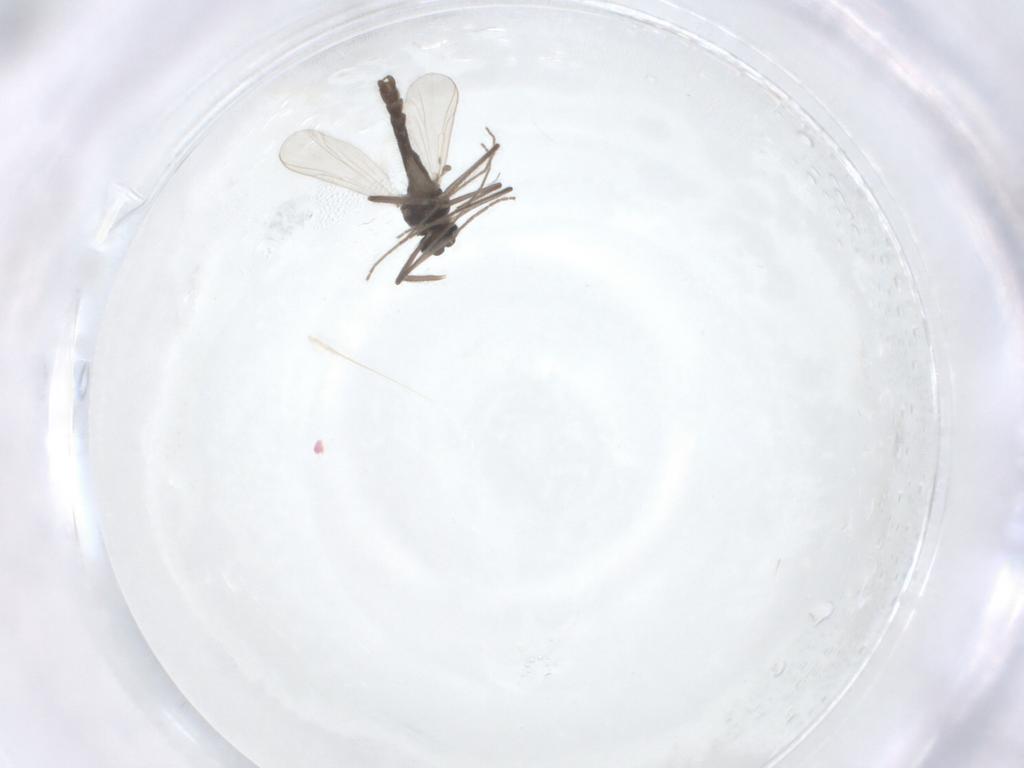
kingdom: Animalia
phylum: Arthropoda
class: Insecta
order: Diptera
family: Chironomidae
